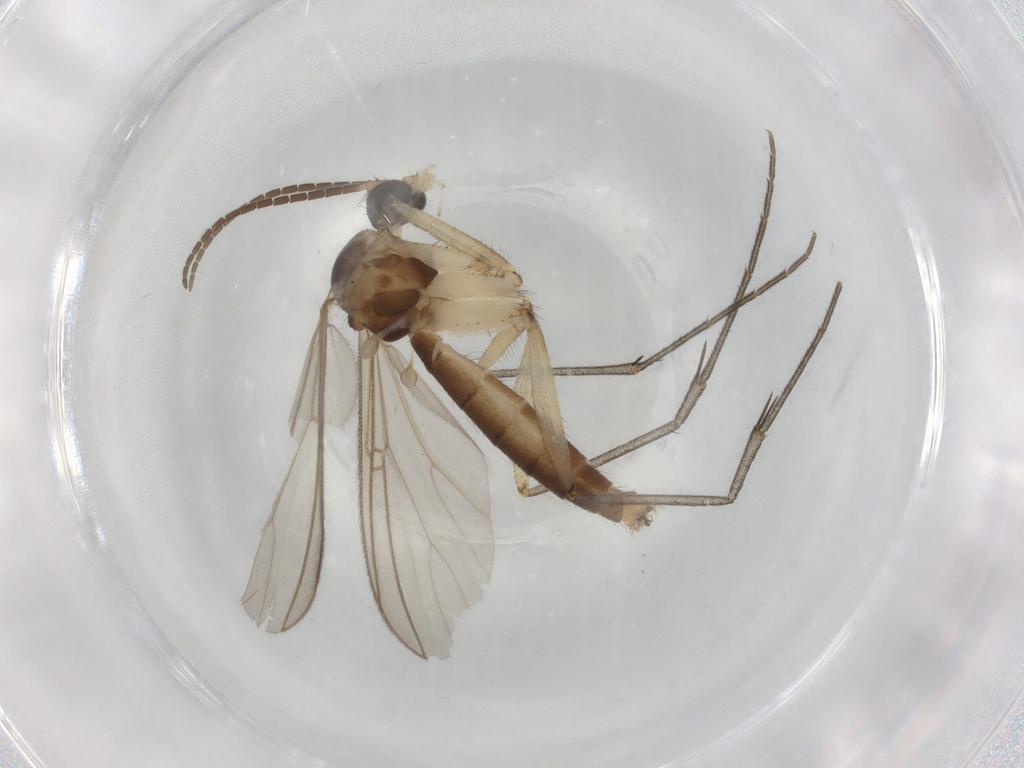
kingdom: Animalia
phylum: Arthropoda
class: Insecta
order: Diptera
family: Mycetophilidae
